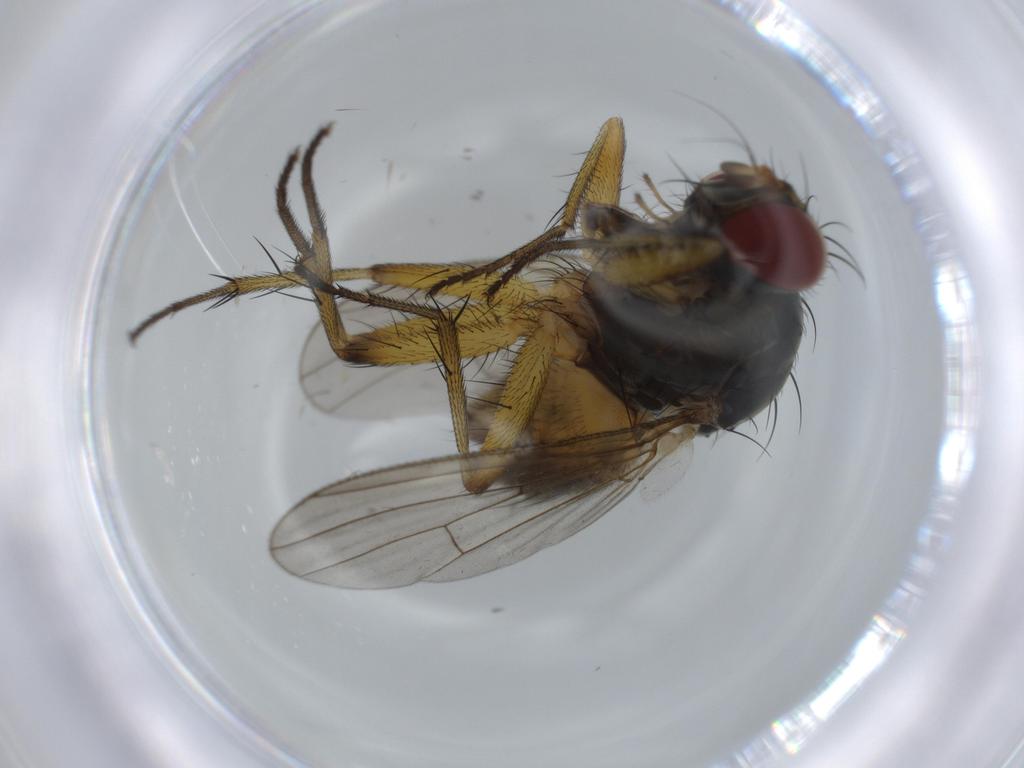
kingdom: Animalia
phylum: Arthropoda
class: Insecta
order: Diptera
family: Muscidae
